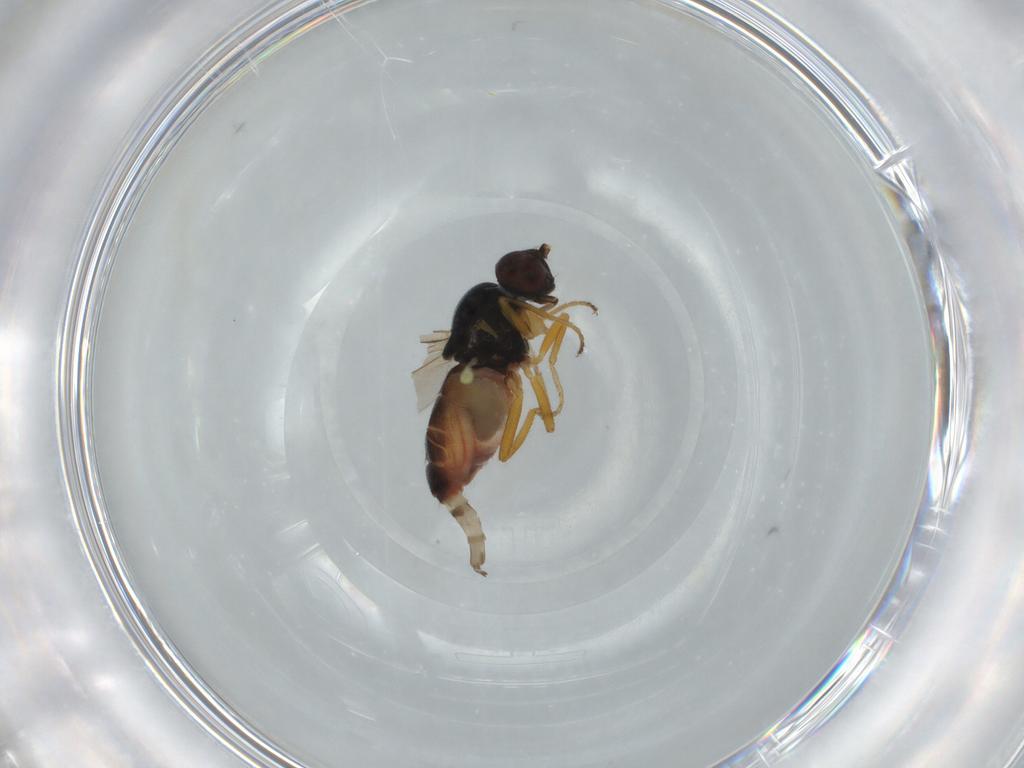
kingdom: Animalia
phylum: Arthropoda
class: Insecta
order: Diptera
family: Chloropidae
